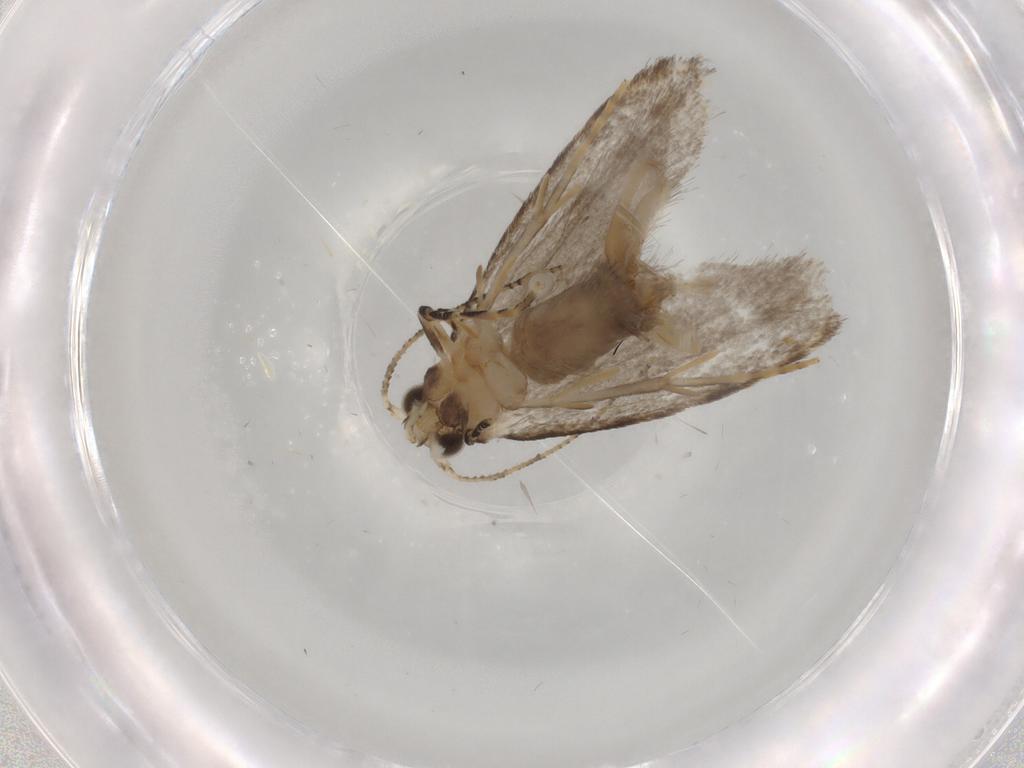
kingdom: Animalia
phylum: Arthropoda
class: Insecta
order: Lepidoptera
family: Tineidae
